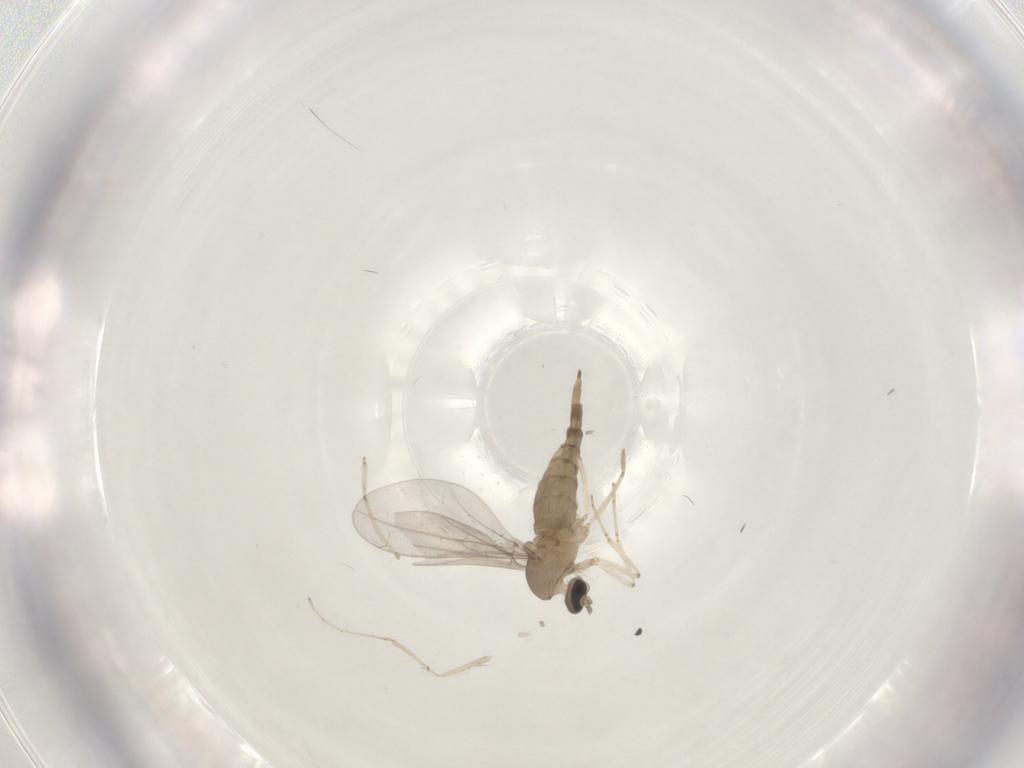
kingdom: Animalia
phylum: Arthropoda
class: Insecta
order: Diptera
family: Cecidomyiidae
